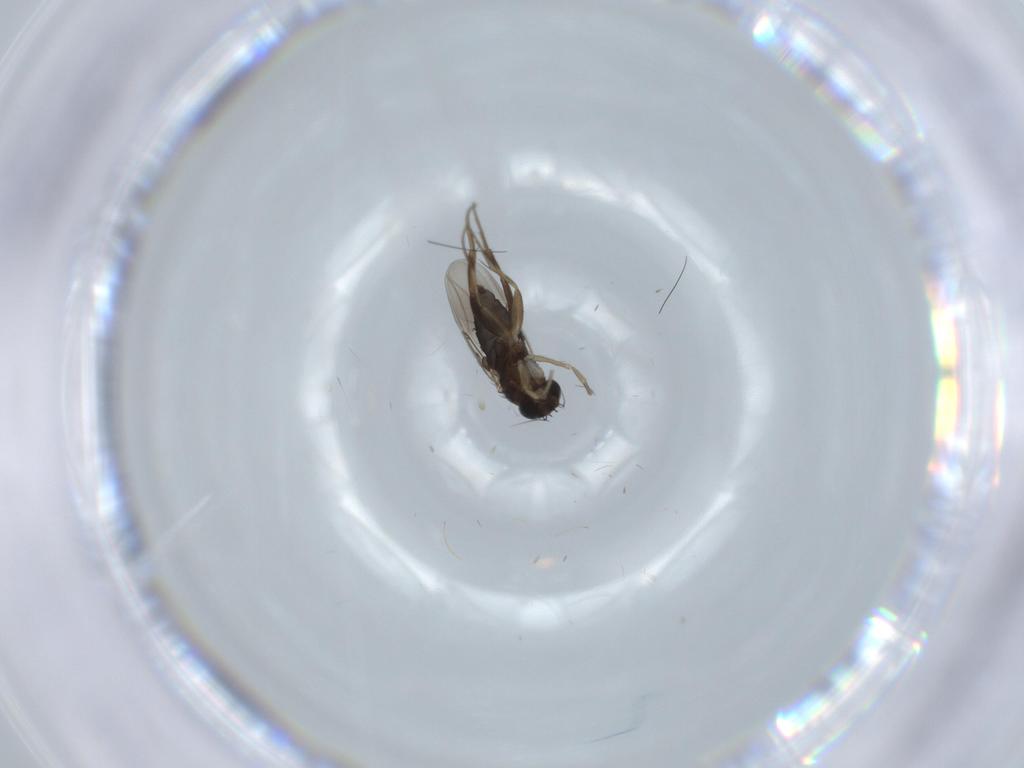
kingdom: Animalia
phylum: Arthropoda
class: Insecta
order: Diptera
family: Phoridae
